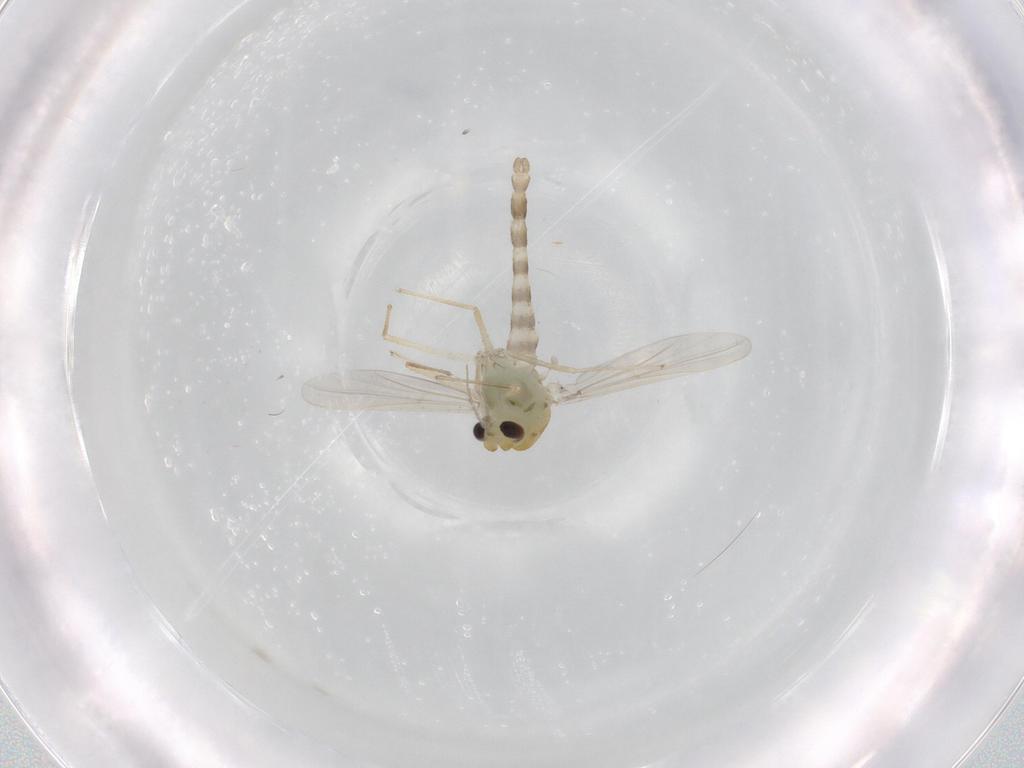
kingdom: Animalia
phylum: Arthropoda
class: Insecta
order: Diptera
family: Chironomidae
